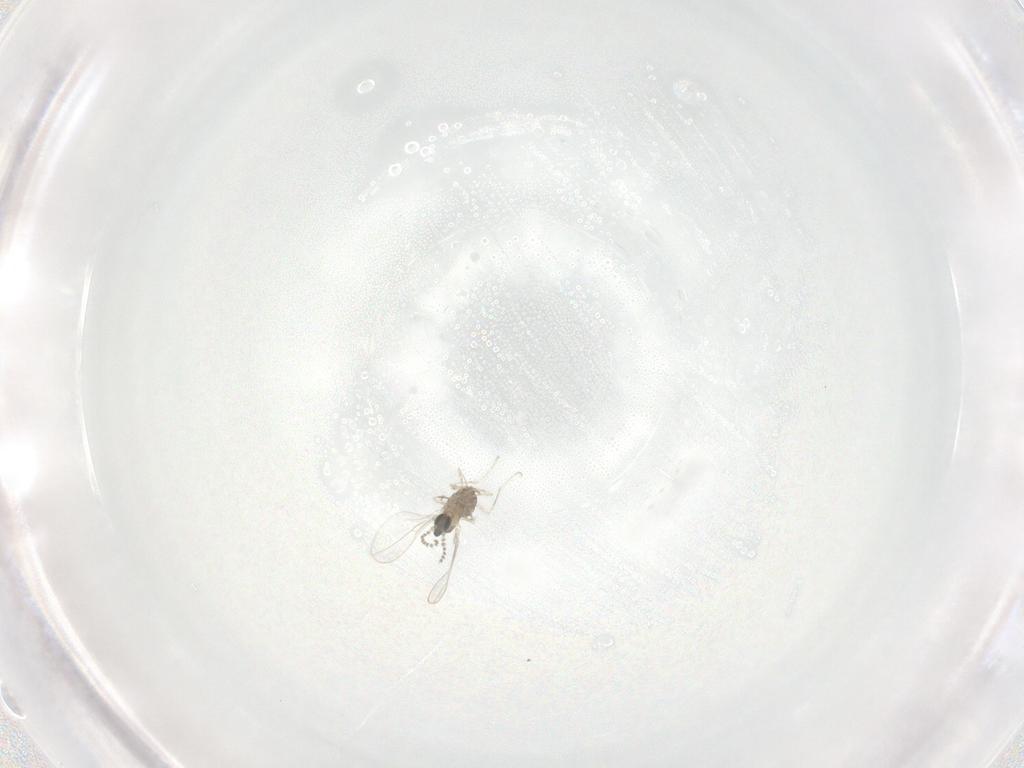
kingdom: Animalia
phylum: Arthropoda
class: Insecta
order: Diptera
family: Sciaridae
